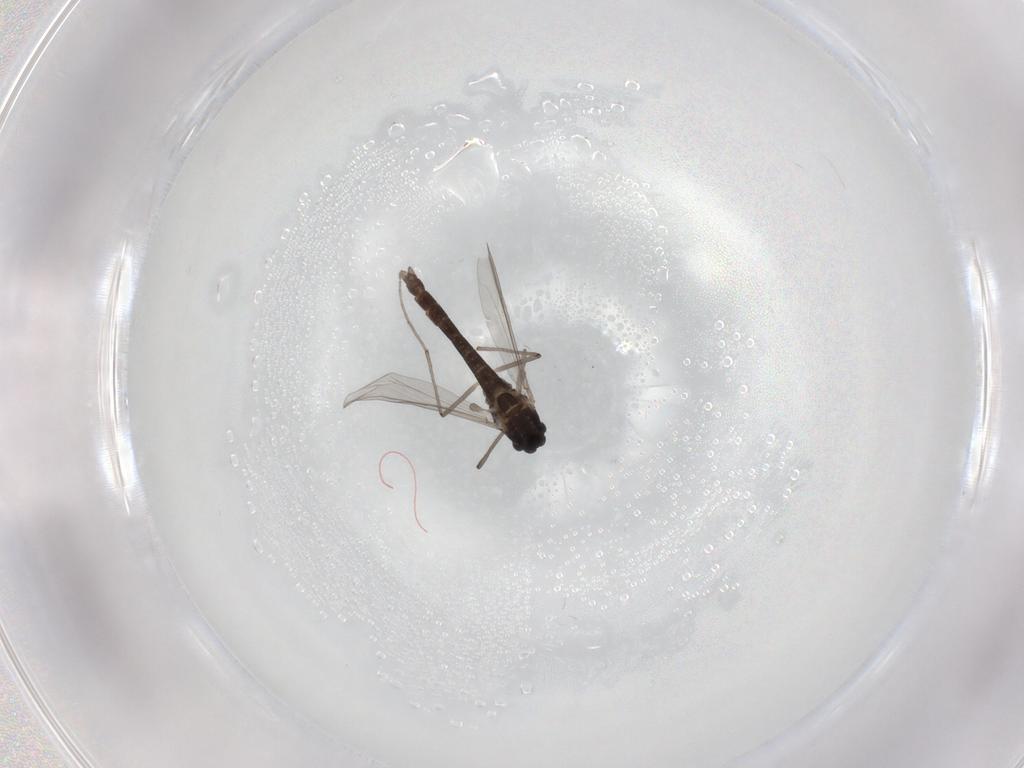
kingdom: Animalia
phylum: Arthropoda
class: Insecta
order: Diptera
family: Chironomidae
